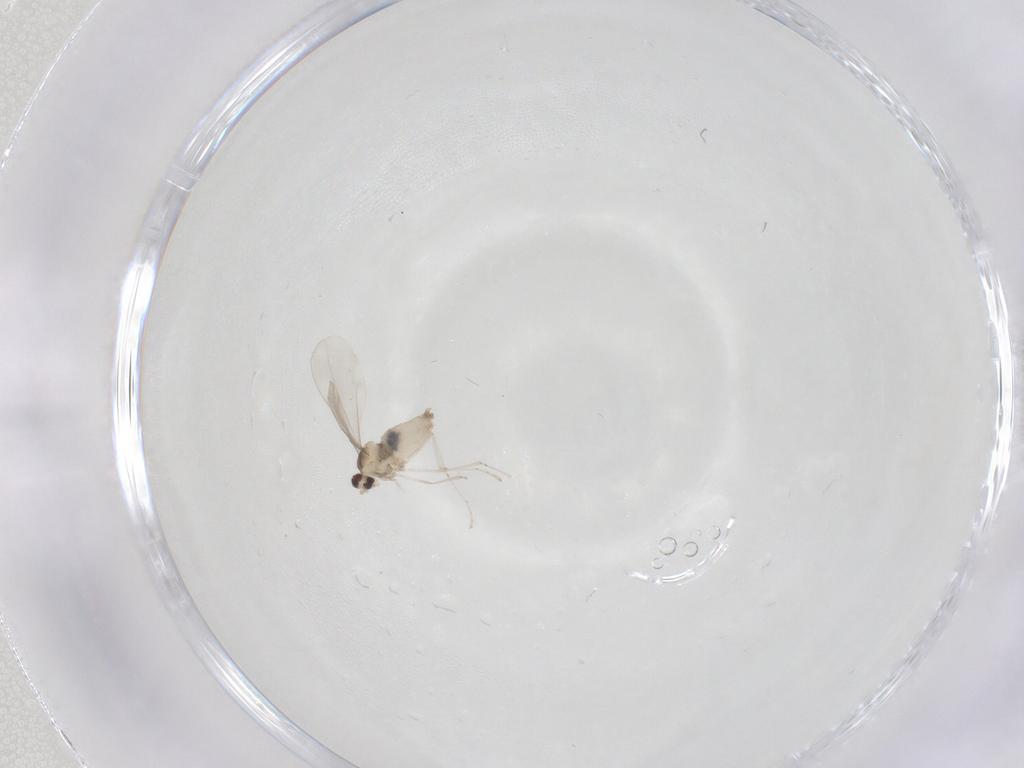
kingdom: Animalia
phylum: Arthropoda
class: Insecta
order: Diptera
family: Cecidomyiidae
